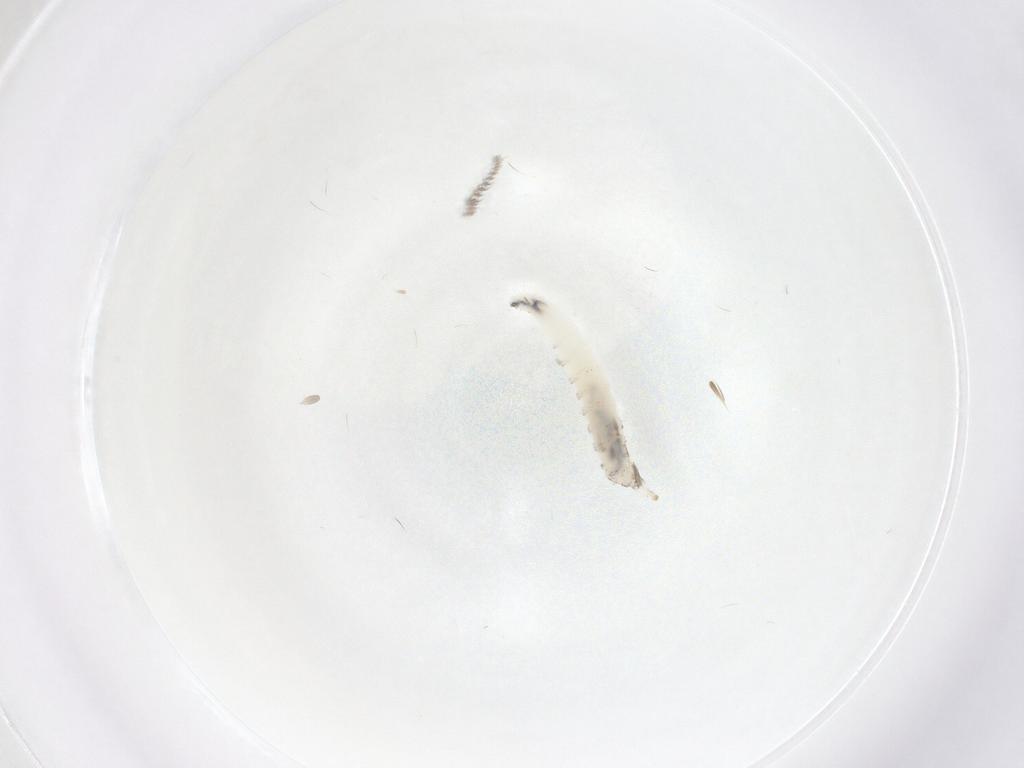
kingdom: Animalia
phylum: Arthropoda
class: Insecta
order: Diptera
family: Psychodidae
